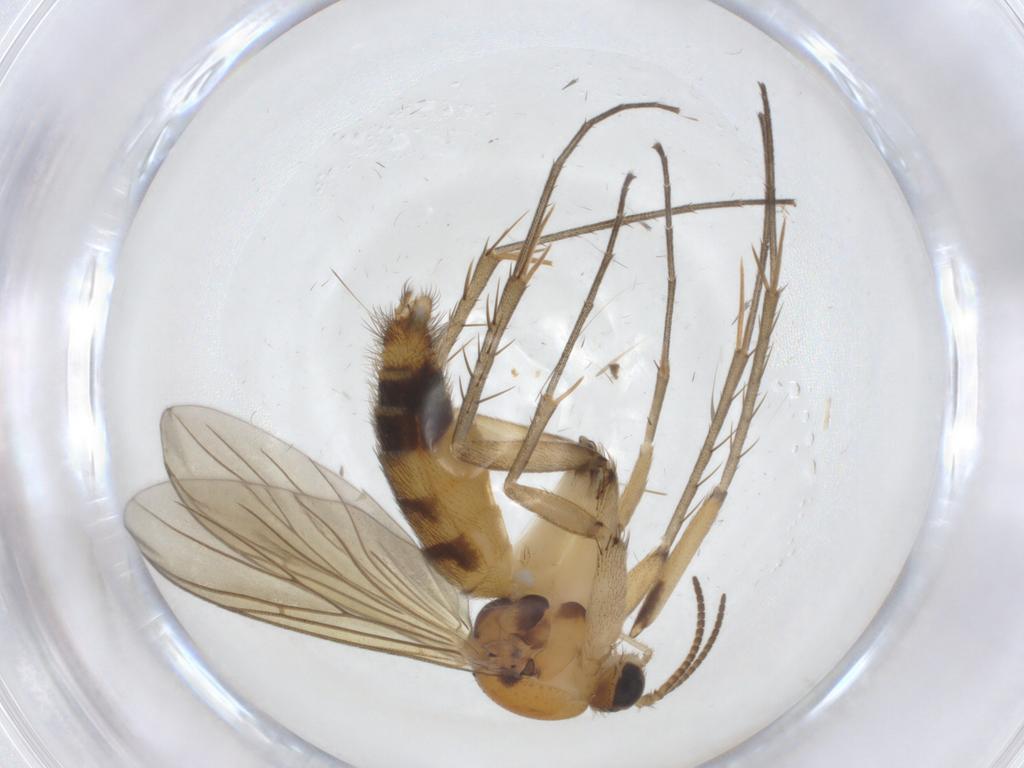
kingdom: Animalia
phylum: Arthropoda
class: Insecta
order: Diptera
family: Mycetophilidae
